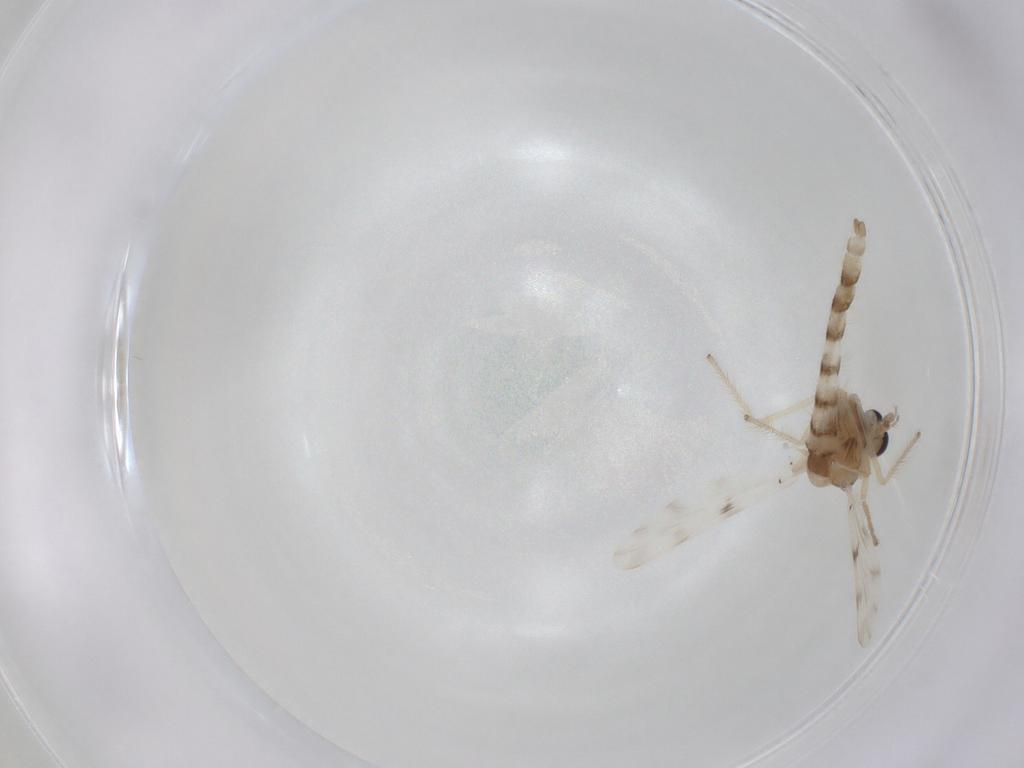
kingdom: Animalia
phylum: Arthropoda
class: Insecta
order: Diptera
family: Chironomidae
